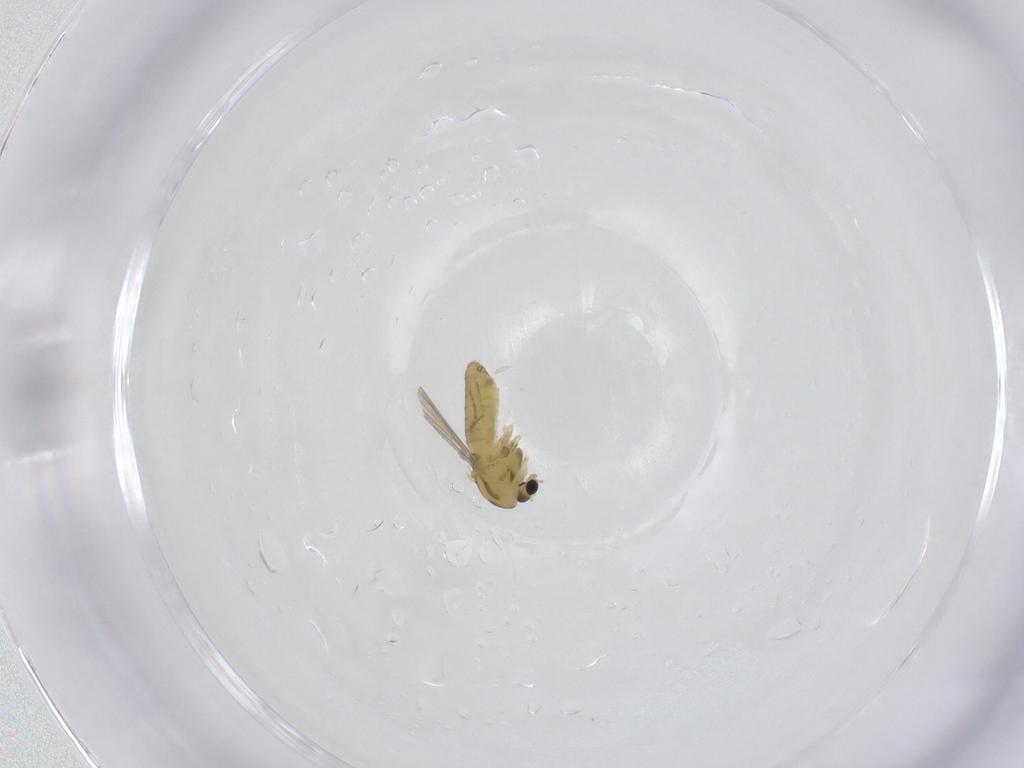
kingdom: Animalia
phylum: Arthropoda
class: Insecta
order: Diptera
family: Chironomidae
